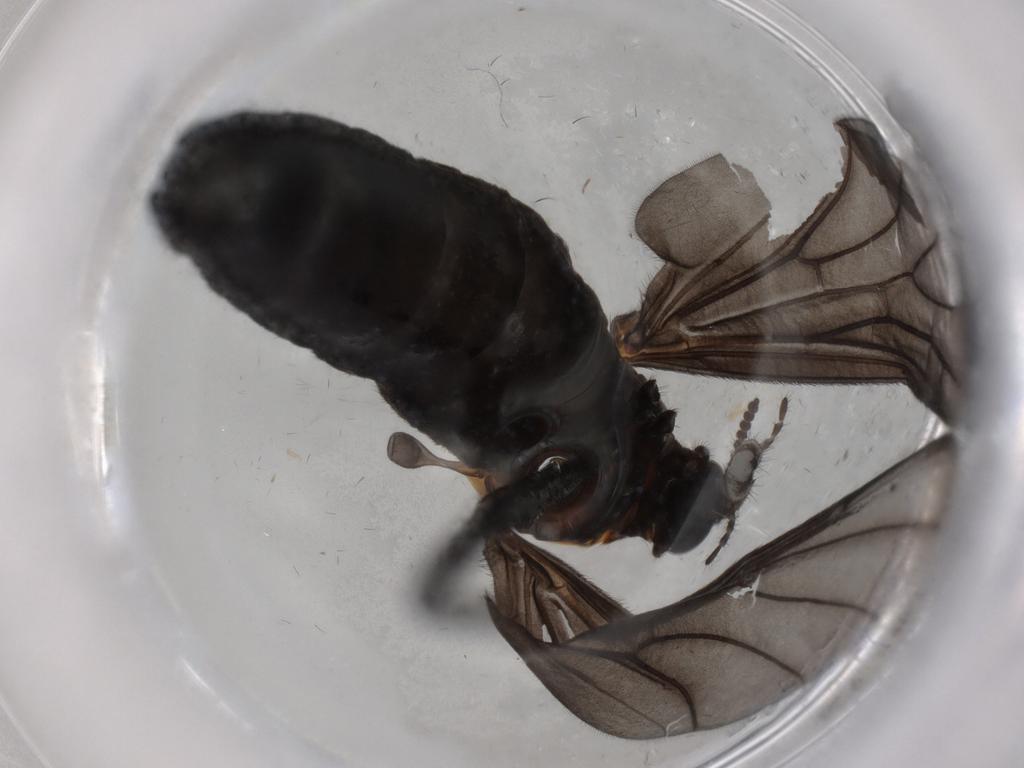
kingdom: Animalia
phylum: Arthropoda
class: Insecta
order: Diptera
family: Bibionidae
